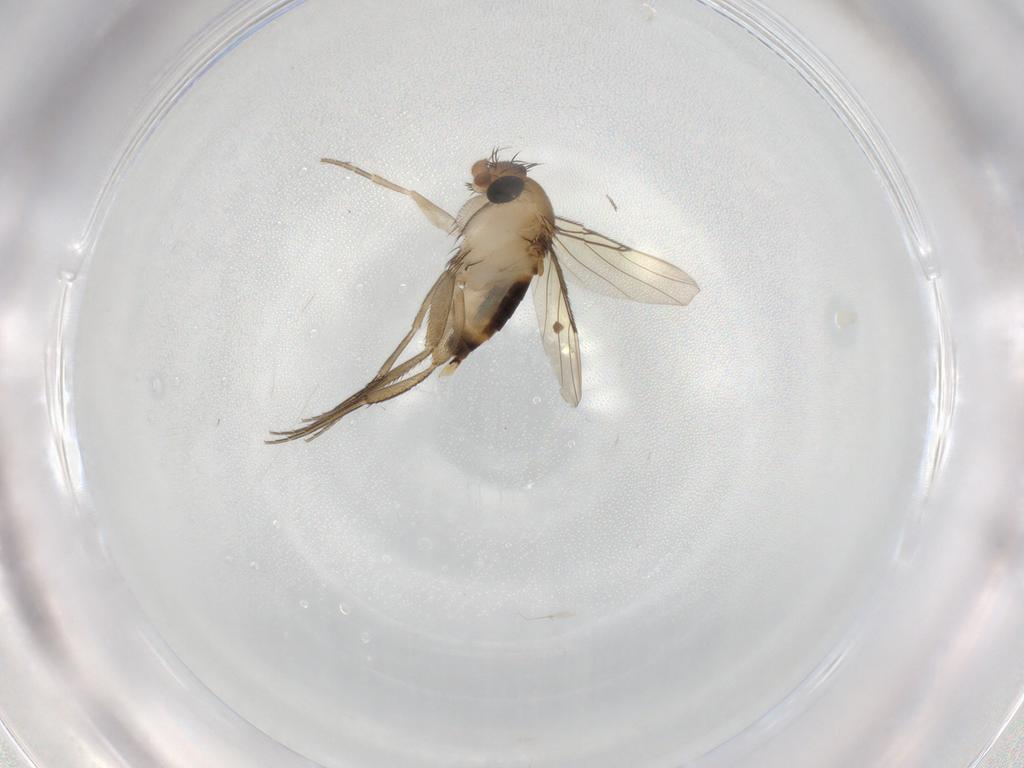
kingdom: Animalia
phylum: Arthropoda
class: Insecta
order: Diptera
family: Phoridae
